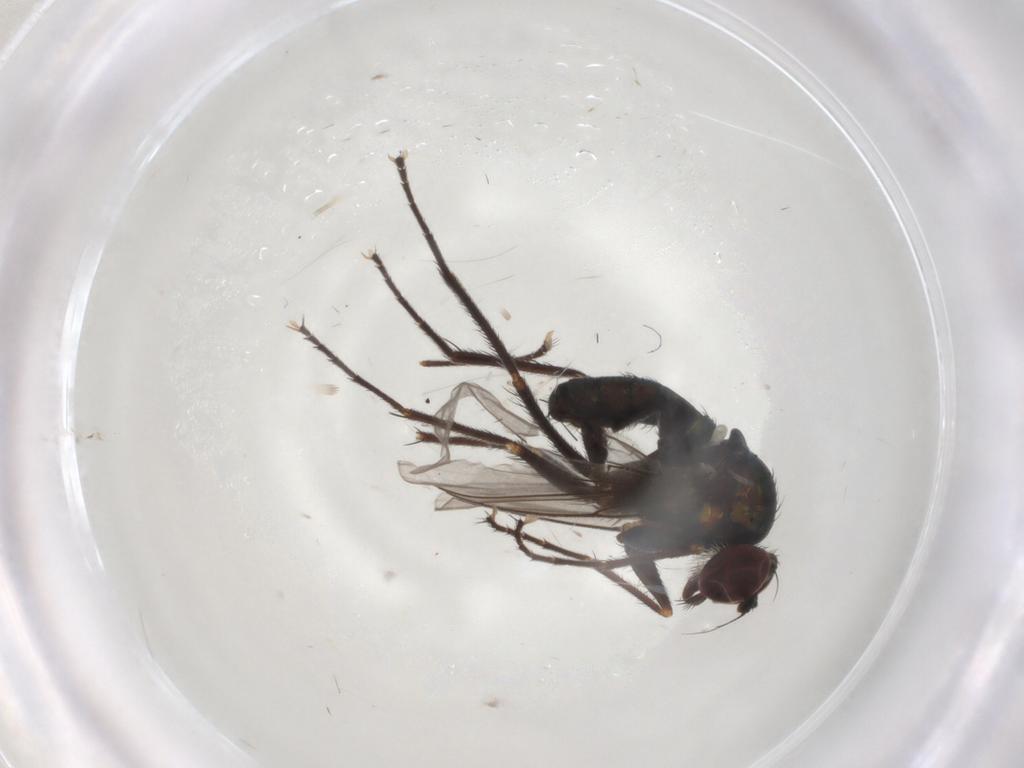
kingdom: Animalia
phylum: Arthropoda
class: Insecta
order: Diptera
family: Dolichopodidae
